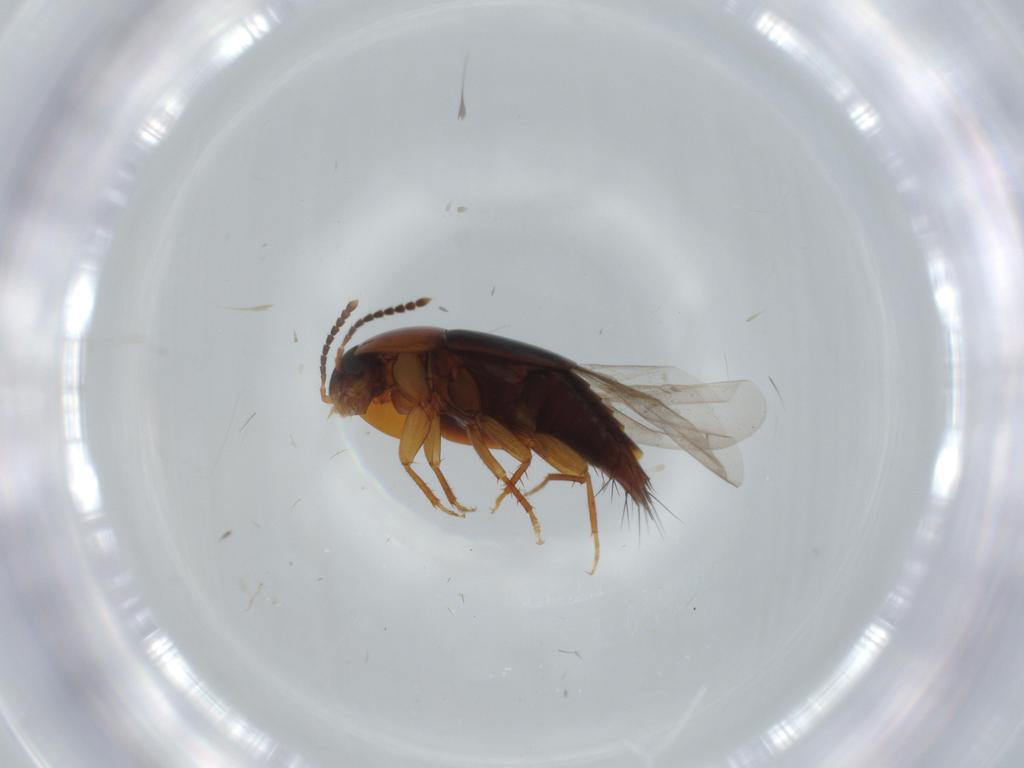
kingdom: Animalia
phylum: Arthropoda
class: Insecta
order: Coleoptera
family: Staphylinidae
